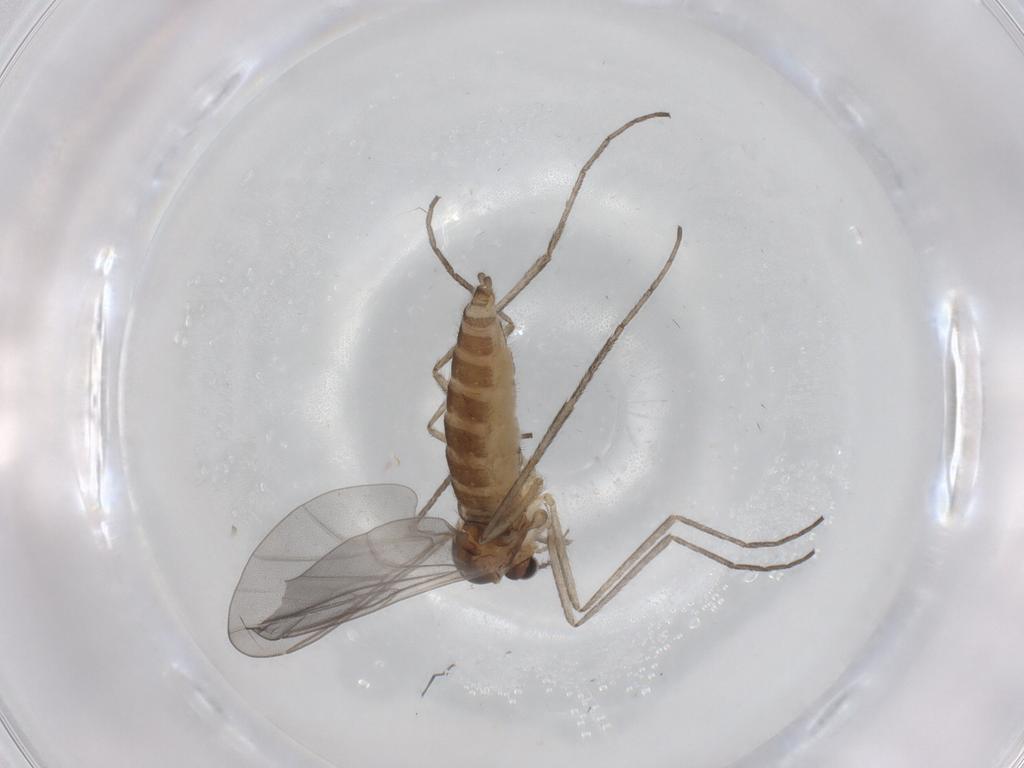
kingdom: Animalia
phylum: Arthropoda
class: Insecta
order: Diptera
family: Cecidomyiidae
